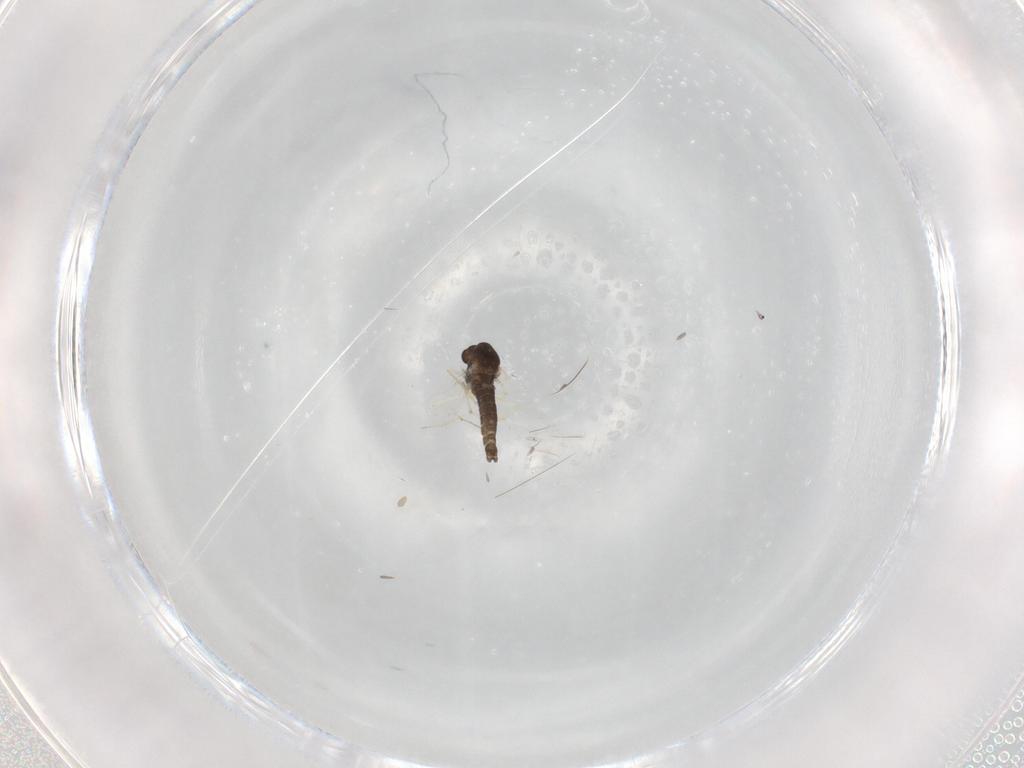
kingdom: Animalia
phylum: Arthropoda
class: Insecta
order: Diptera
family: Chironomidae
